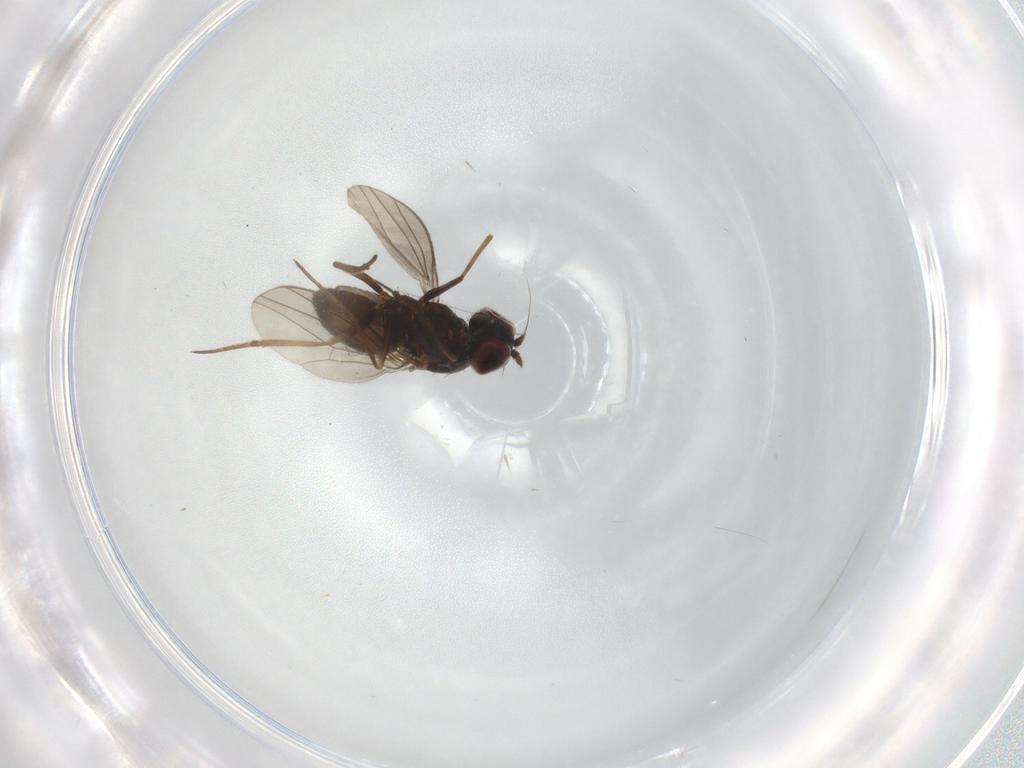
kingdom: Animalia
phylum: Arthropoda
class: Insecta
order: Diptera
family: Dolichopodidae
